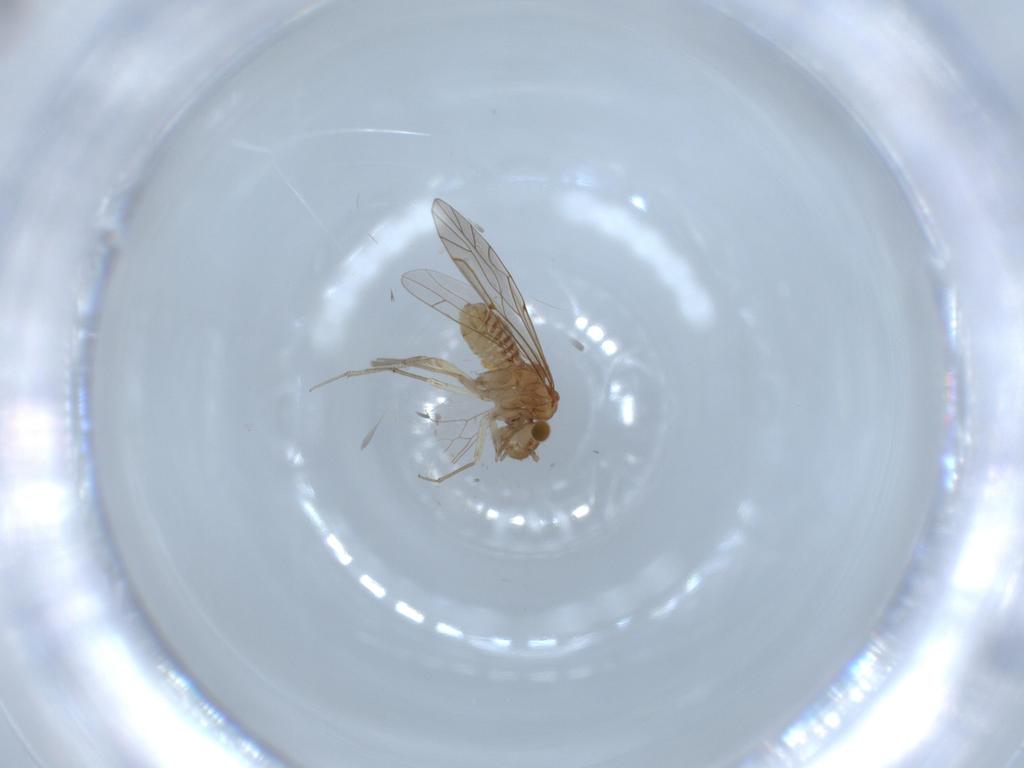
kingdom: Animalia
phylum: Arthropoda
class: Insecta
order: Psocodea
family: Lachesillidae
